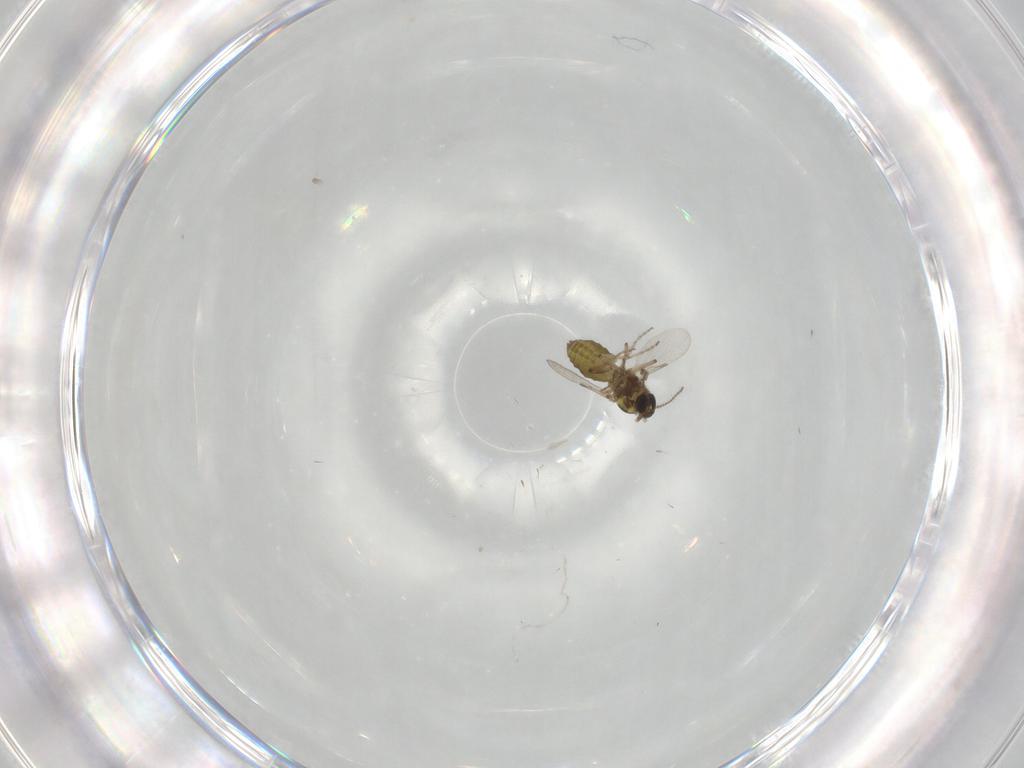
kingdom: Animalia
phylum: Arthropoda
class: Insecta
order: Diptera
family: Ceratopogonidae
